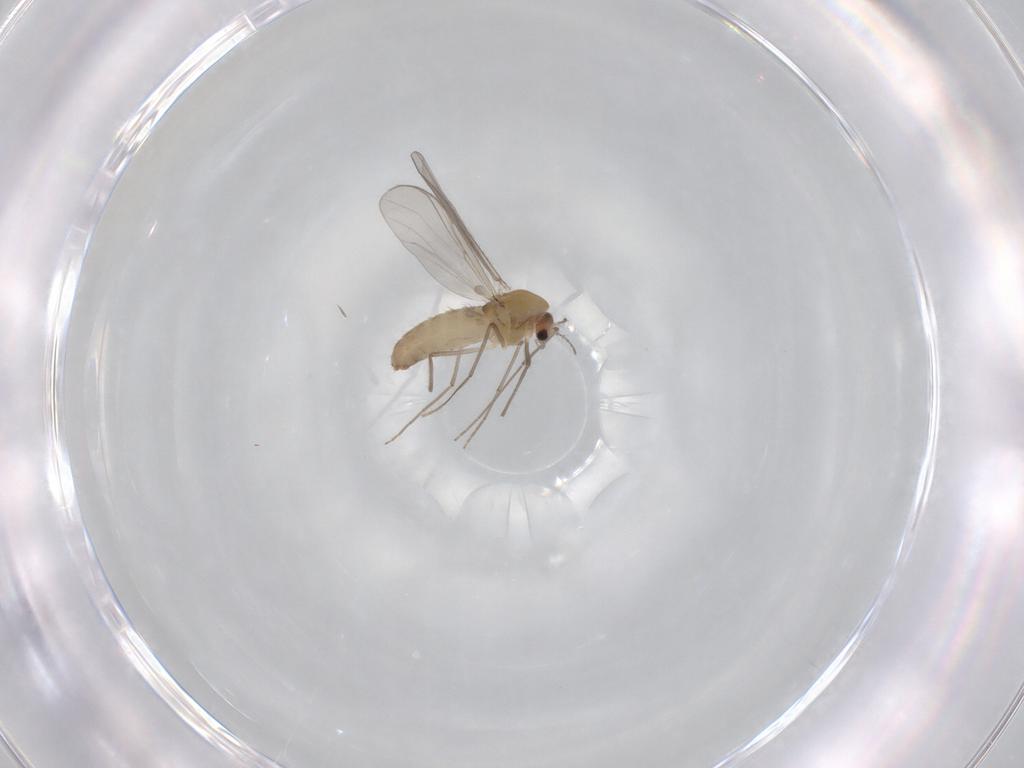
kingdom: Animalia
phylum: Arthropoda
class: Insecta
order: Diptera
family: Chironomidae
